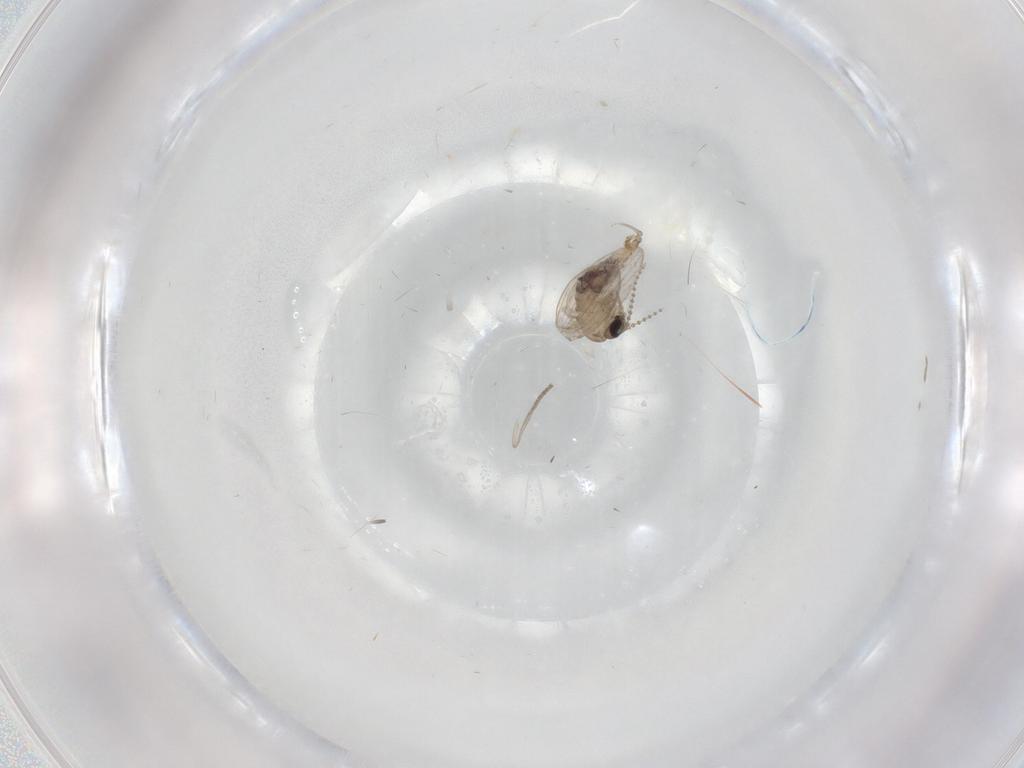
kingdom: Animalia
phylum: Arthropoda
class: Insecta
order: Diptera
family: Psychodidae
